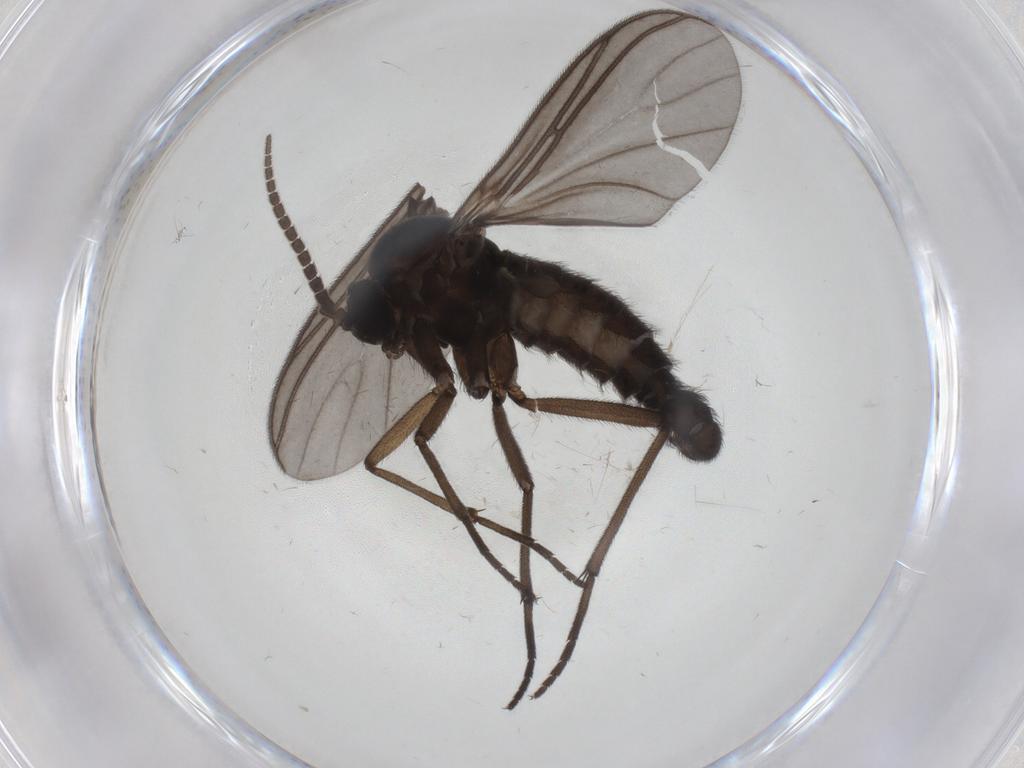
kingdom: Animalia
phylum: Arthropoda
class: Insecta
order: Diptera
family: Sciaridae
